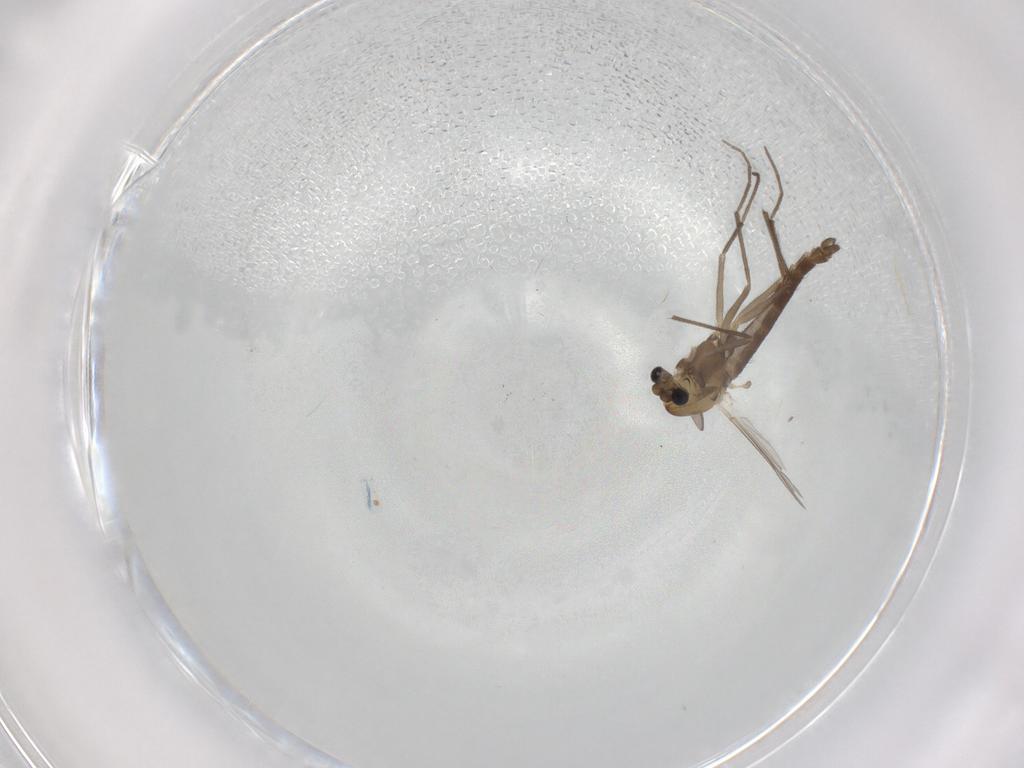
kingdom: Animalia
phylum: Arthropoda
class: Insecta
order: Diptera
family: Chironomidae
